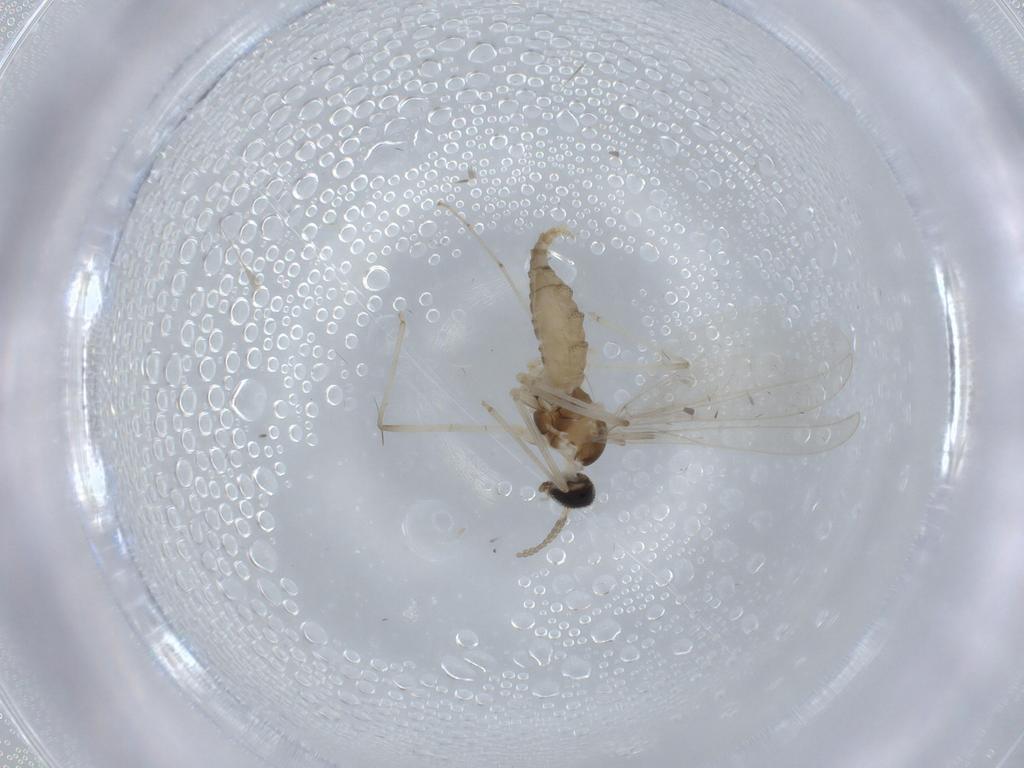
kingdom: Animalia
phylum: Arthropoda
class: Insecta
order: Diptera
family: Cecidomyiidae
